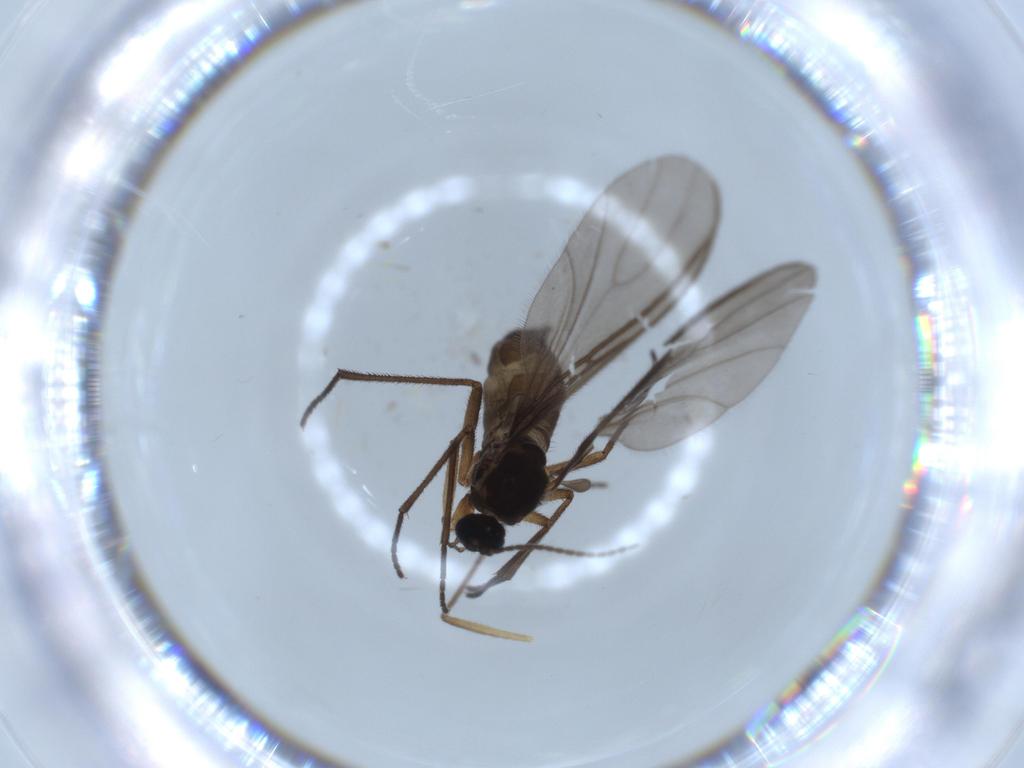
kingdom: Animalia
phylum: Arthropoda
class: Insecta
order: Diptera
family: Sciaridae
